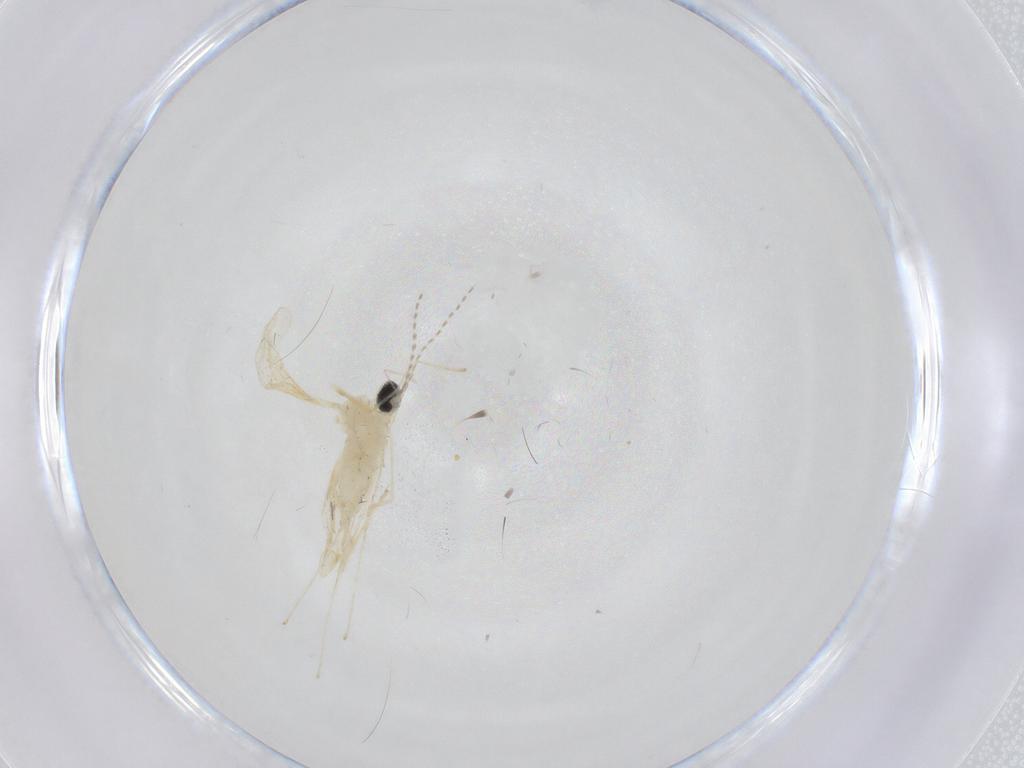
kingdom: Animalia
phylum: Arthropoda
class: Insecta
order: Diptera
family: Cecidomyiidae
